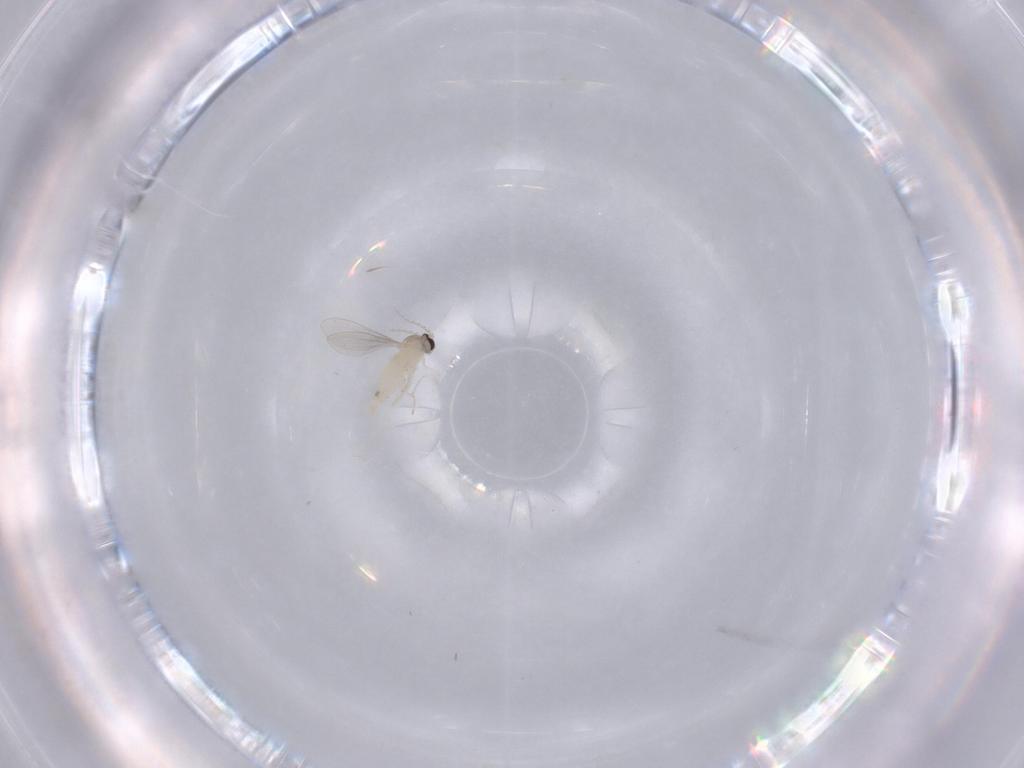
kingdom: Animalia
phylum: Arthropoda
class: Insecta
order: Diptera
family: Cecidomyiidae
